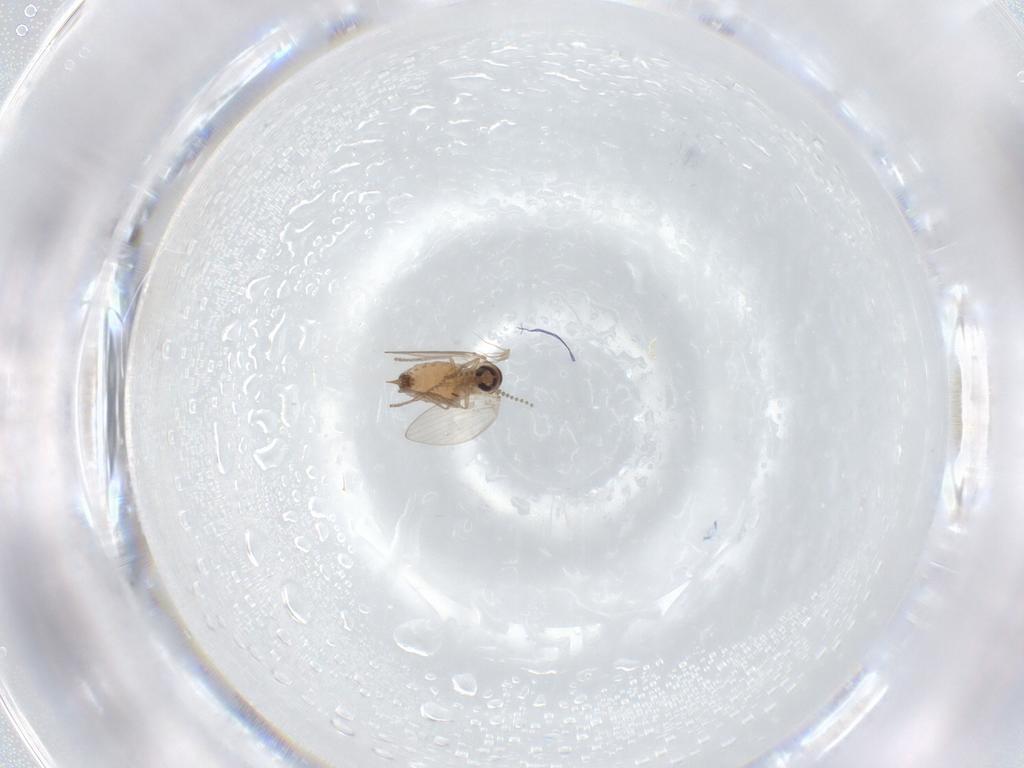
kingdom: Animalia
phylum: Arthropoda
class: Insecta
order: Diptera
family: Psychodidae
